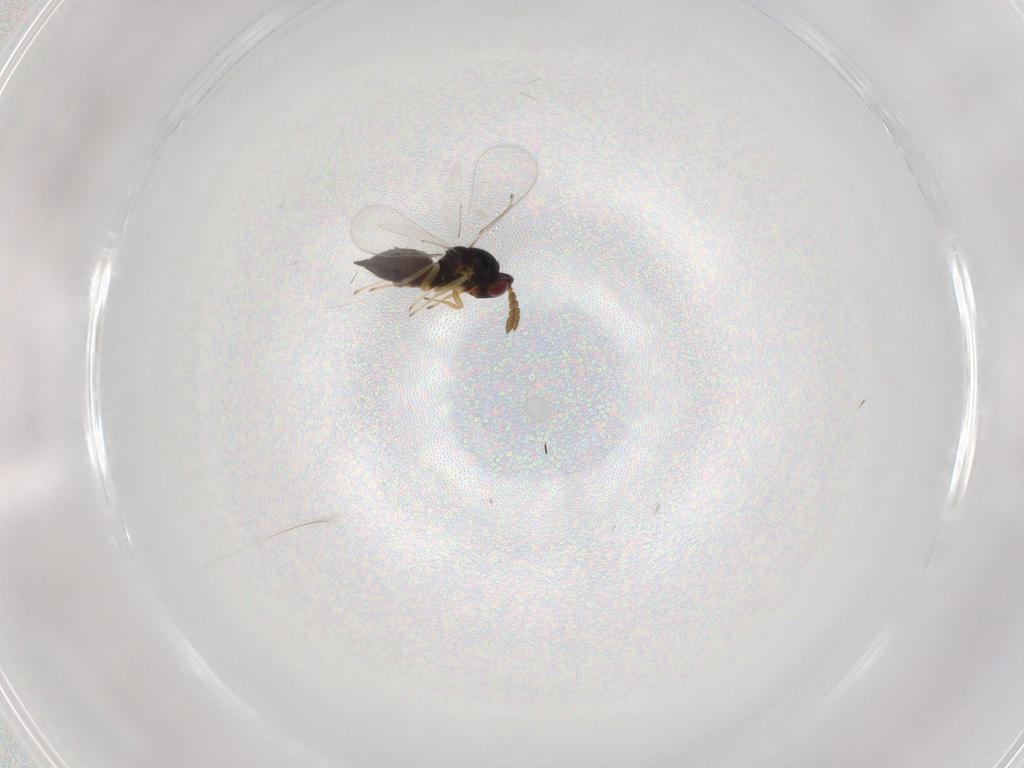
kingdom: Animalia
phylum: Arthropoda
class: Insecta
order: Hymenoptera
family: Eulophidae
